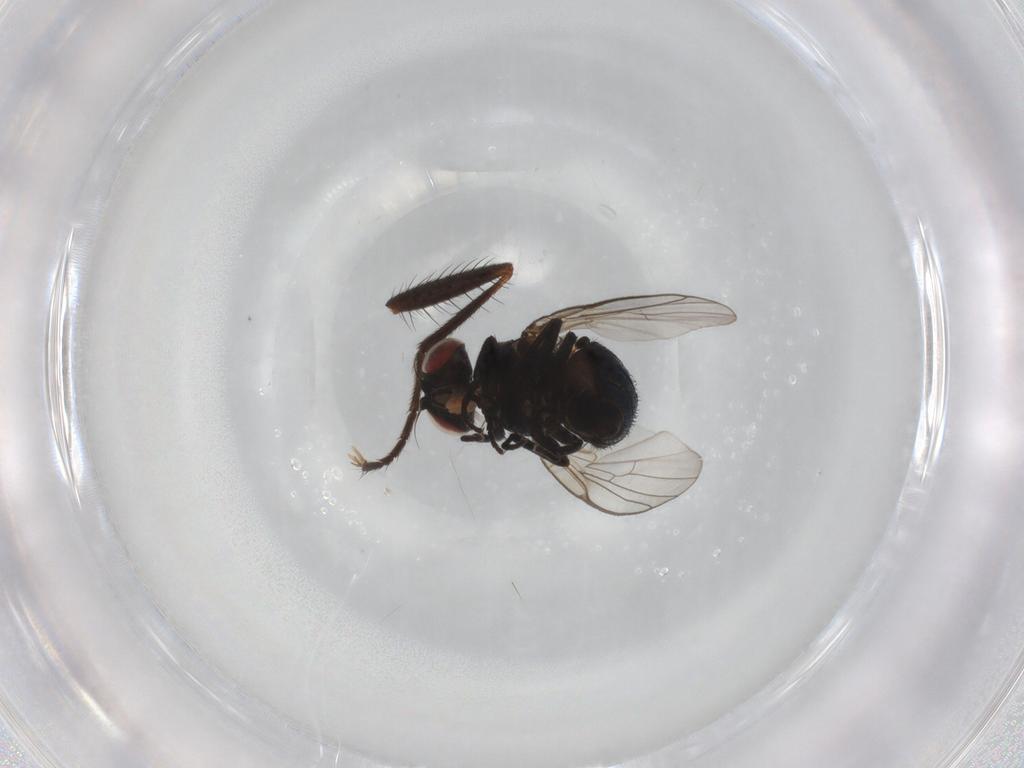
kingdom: Animalia
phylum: Arthropoda
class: Insecta
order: Diptera
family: Agromyzidae
